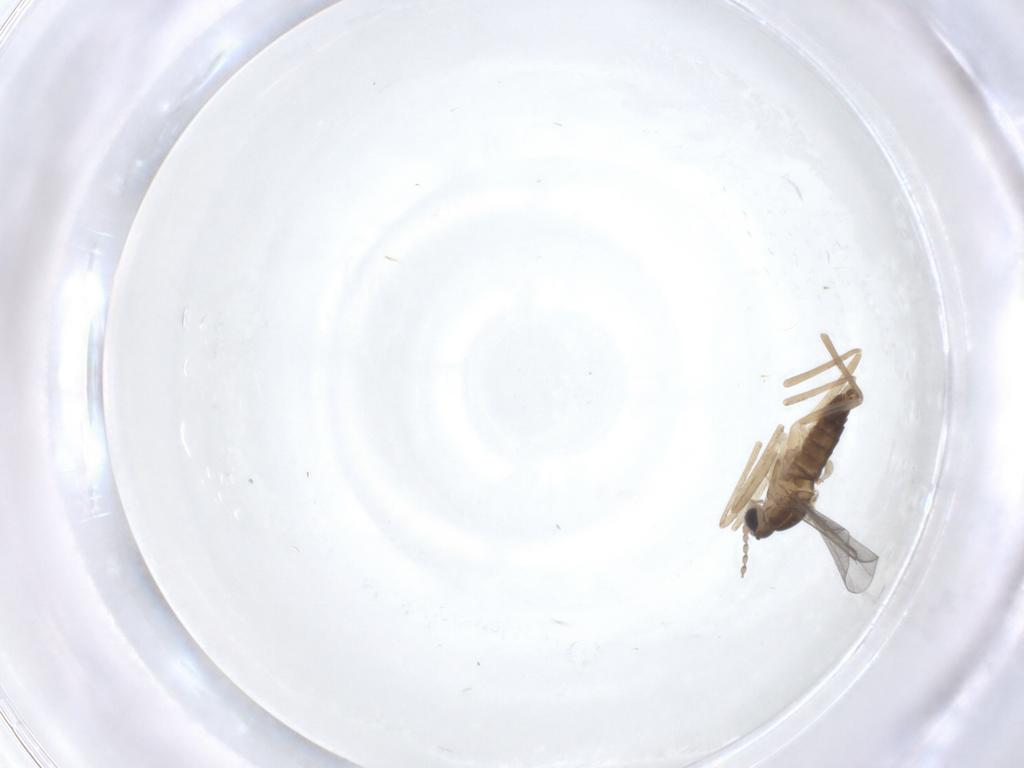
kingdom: Animalia
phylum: Arthropoda
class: Insecta
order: Diptera
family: Cecidomyiidae
